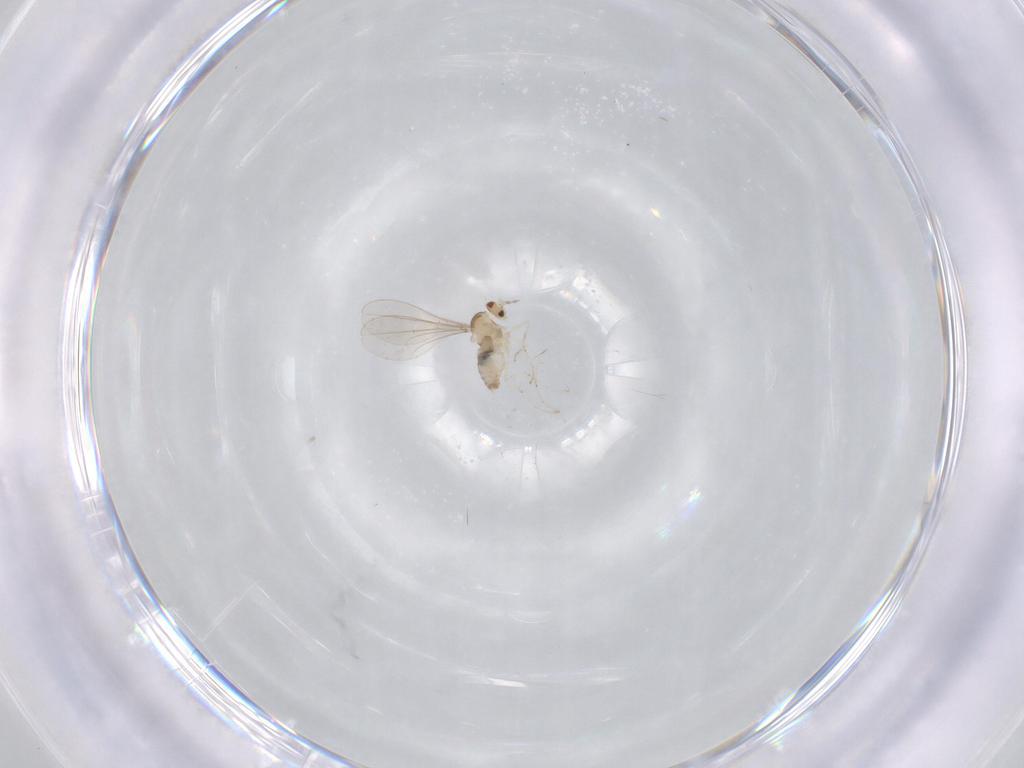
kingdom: Animalia
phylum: Arthropoda
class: Insecta
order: Diptera
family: Cecidomyiidae
